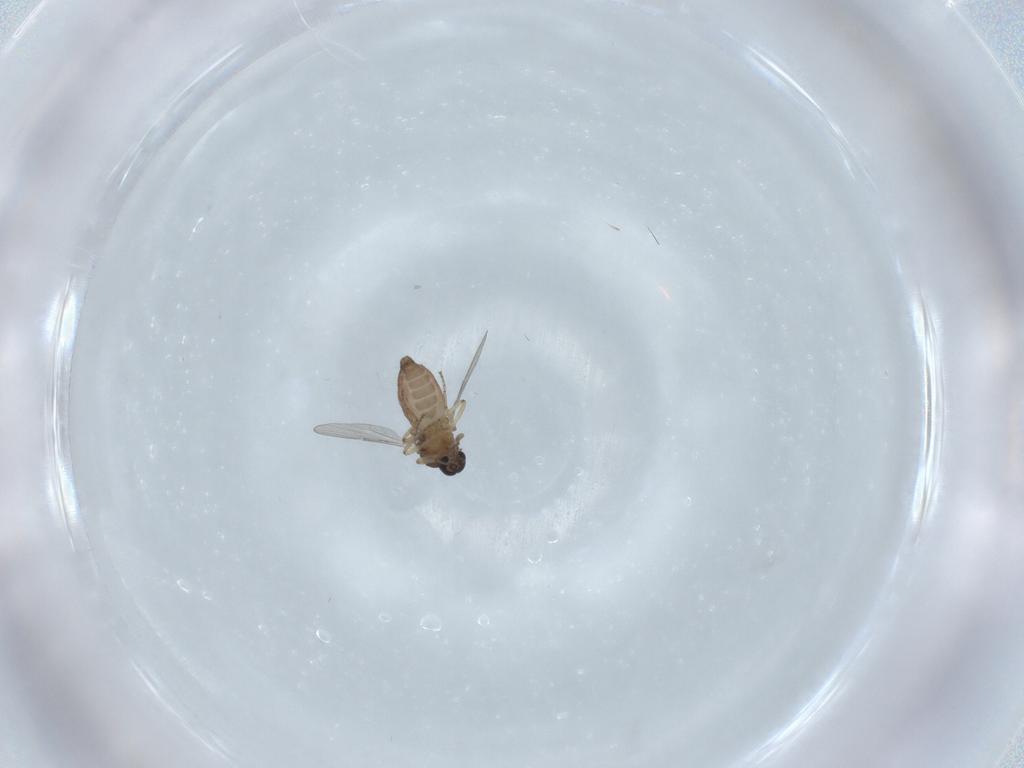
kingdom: Animalia
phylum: Arthropoda
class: Insecta
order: Diptera
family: Ceratopogonidae
